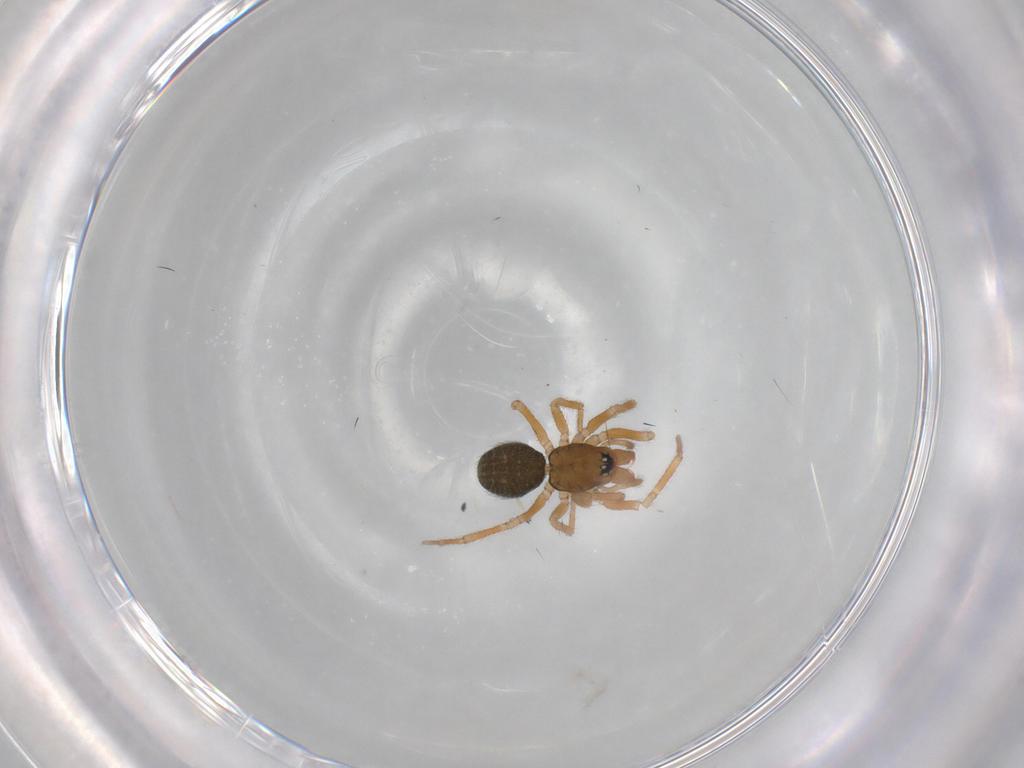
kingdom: Animalia
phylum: Arthropoda
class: Arachnida
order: Araneae
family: Linyphiidae
